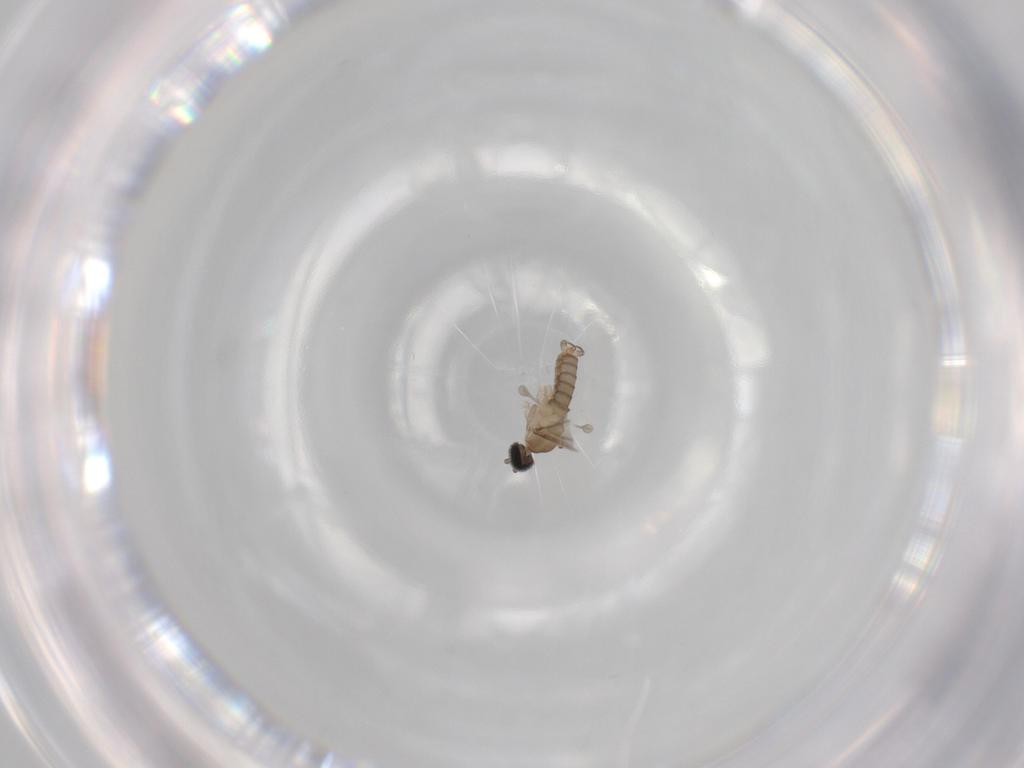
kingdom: Animalia
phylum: Arthropoda
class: Insecta
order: Diptera
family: Cecidomyiidae
